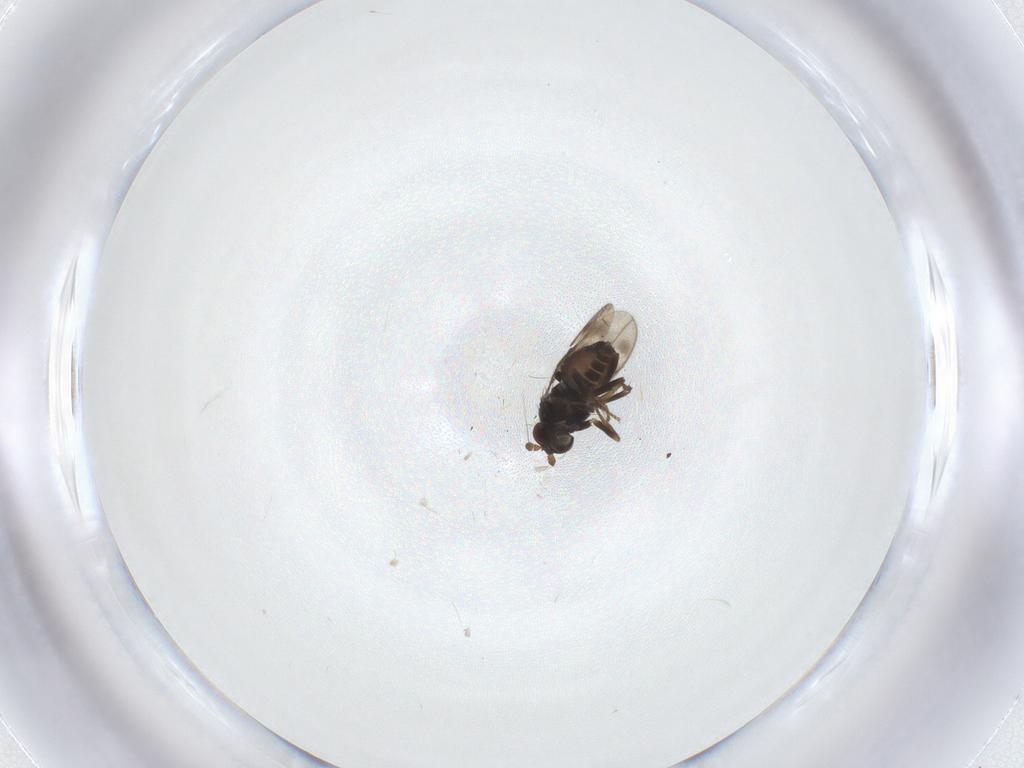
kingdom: Animalia
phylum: Arthropoda
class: Insecta
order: Diptera
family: Sphaeroceridae
